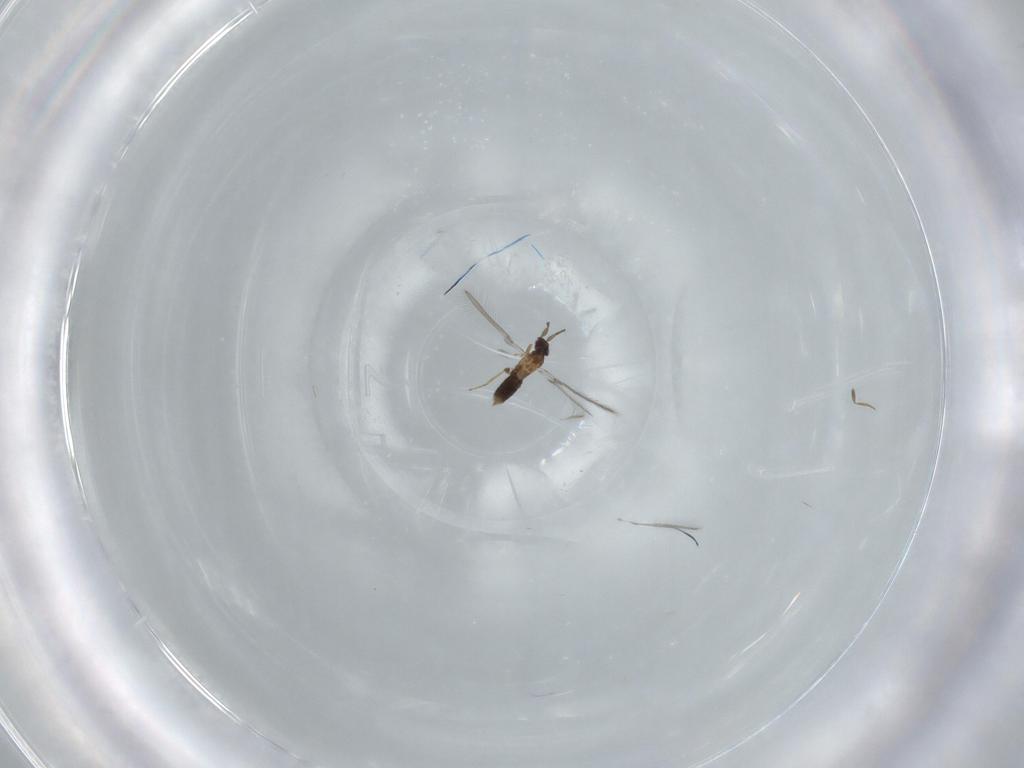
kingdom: Animalia
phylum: Arthropoda
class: Insecta
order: Hymenoptera
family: Mymaridae
